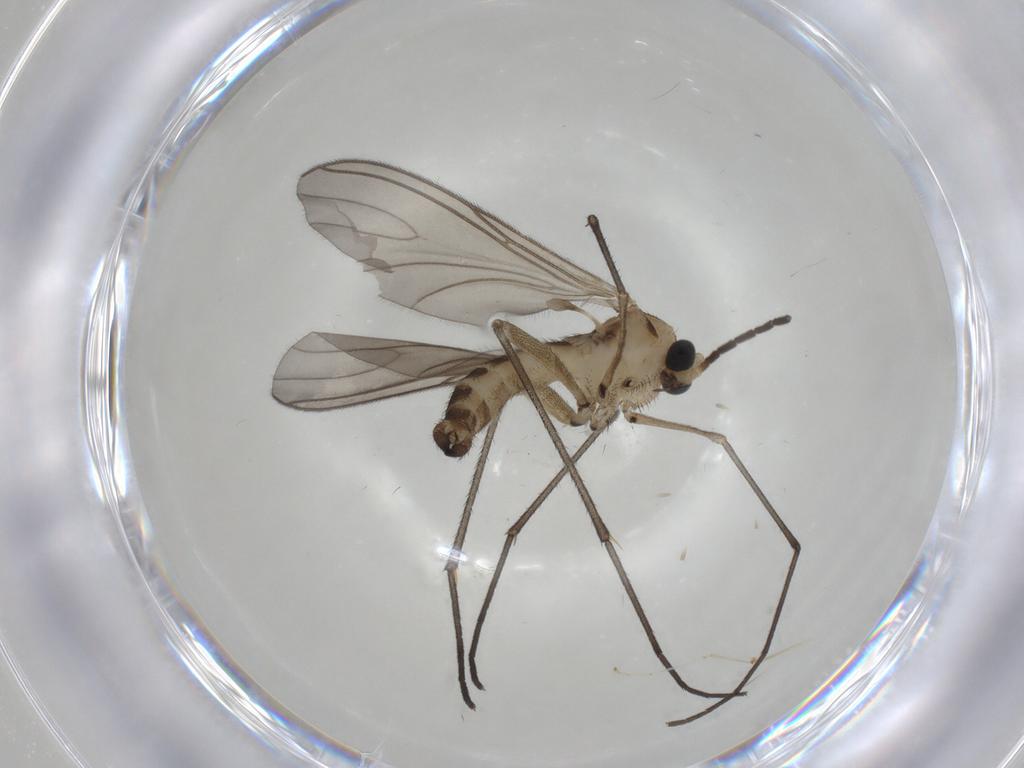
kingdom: Animalia
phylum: Arthropoda
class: Insecta
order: Diptera
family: Sciaridae
